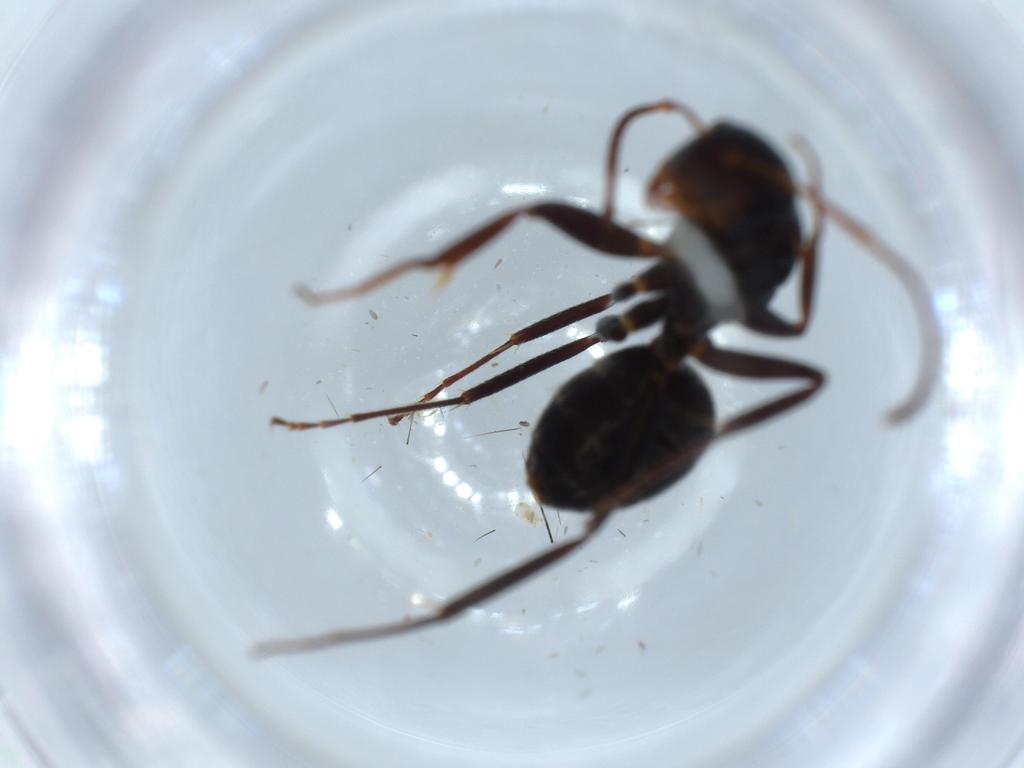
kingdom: Animalia
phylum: Arthropoda
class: Insecta
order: Hymenoptera
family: Formicidae
